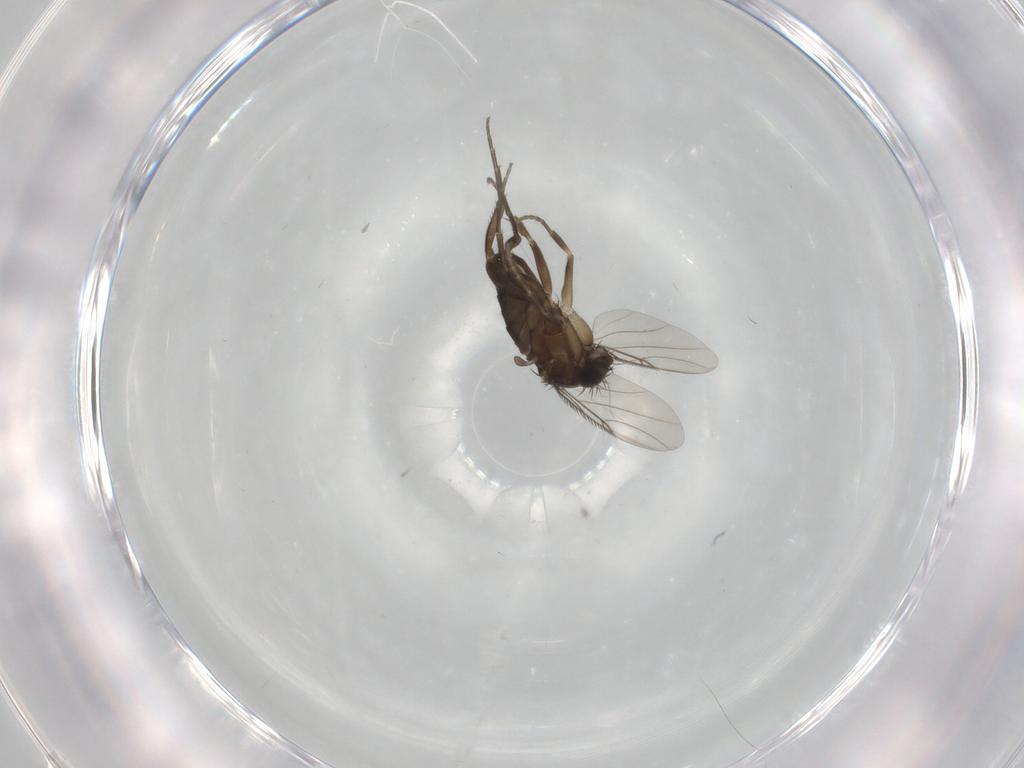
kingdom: Animalia
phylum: Arthropoda
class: Insecta
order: Diptera
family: Phoridae
